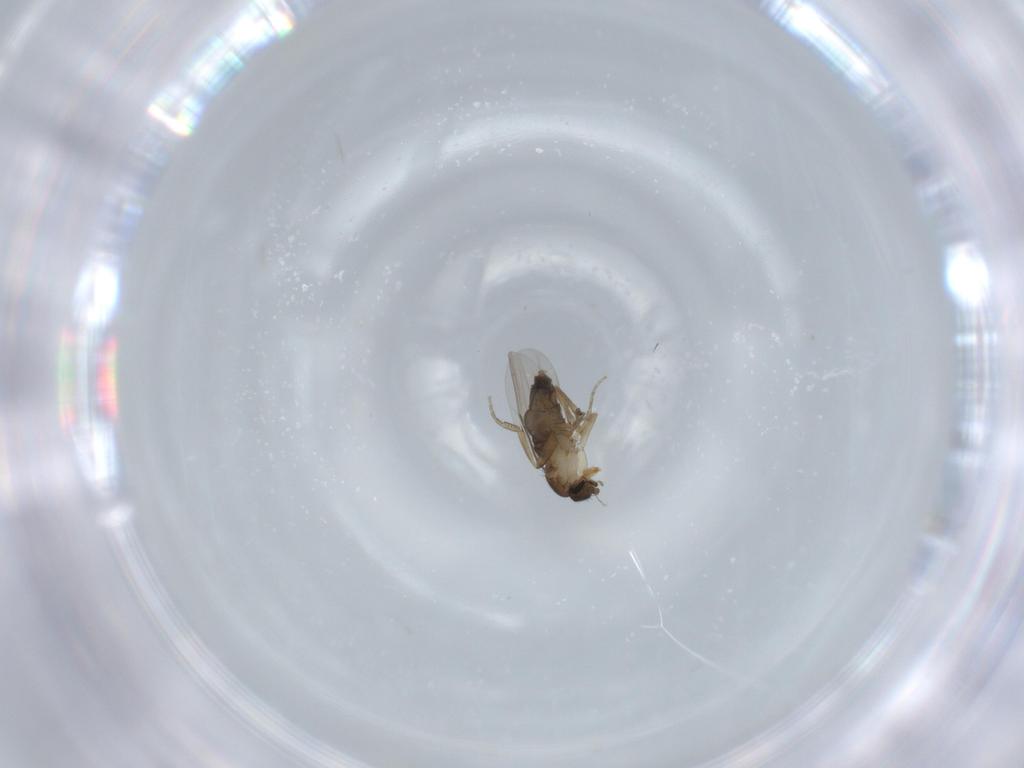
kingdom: Animalia
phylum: Arthropoda
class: Insecta
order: Diptera
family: Phoridae
